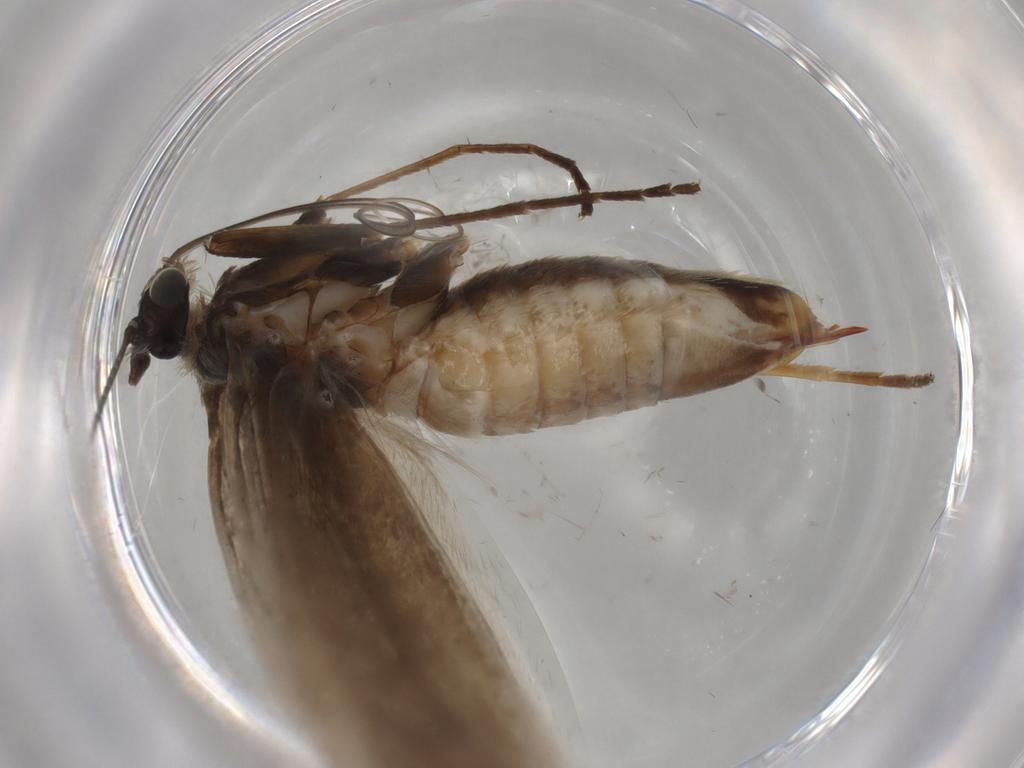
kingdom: Animalia
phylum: Arthropoda
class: Insecta
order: Lepidoptera
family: Adelidae
